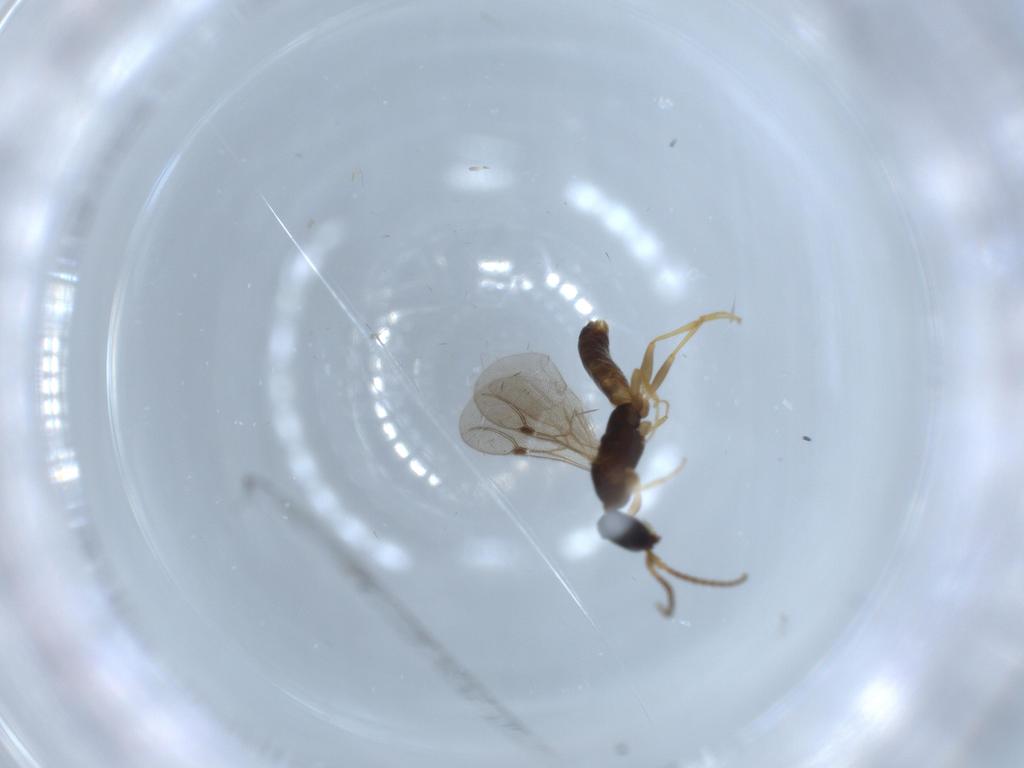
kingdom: Animalia
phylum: Arthropoda
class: Insecta
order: Hymenoptera
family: Bethylidae
